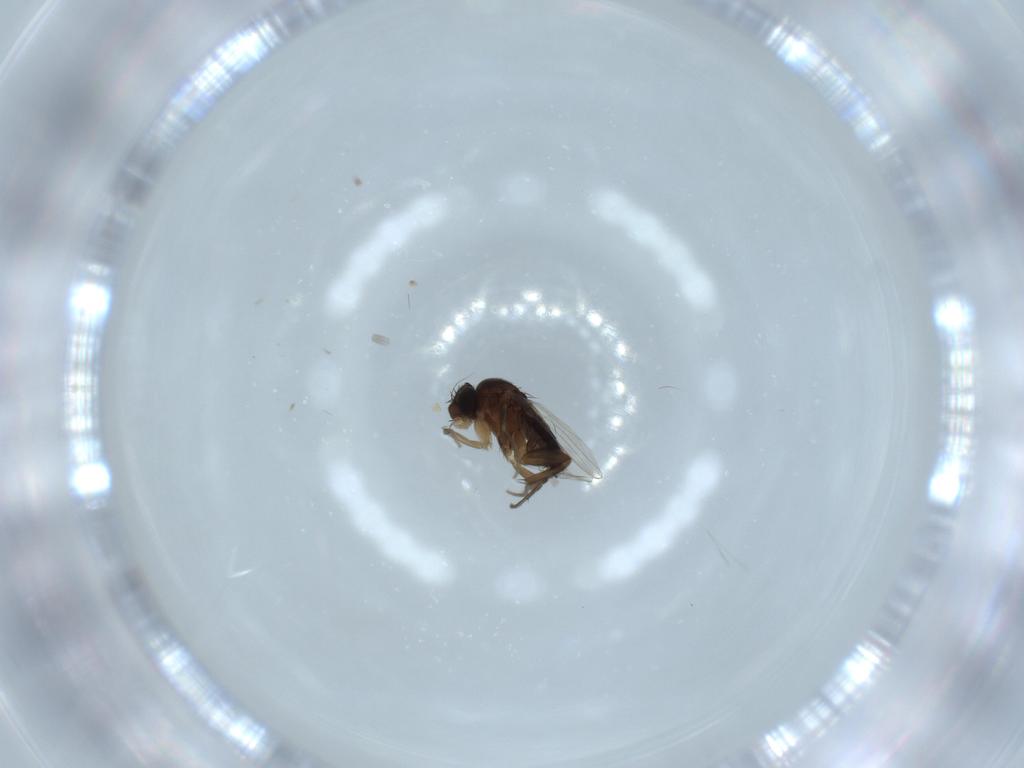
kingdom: Animalia
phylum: Arthropoda
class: Insecta
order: Diptera
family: Phoridae
